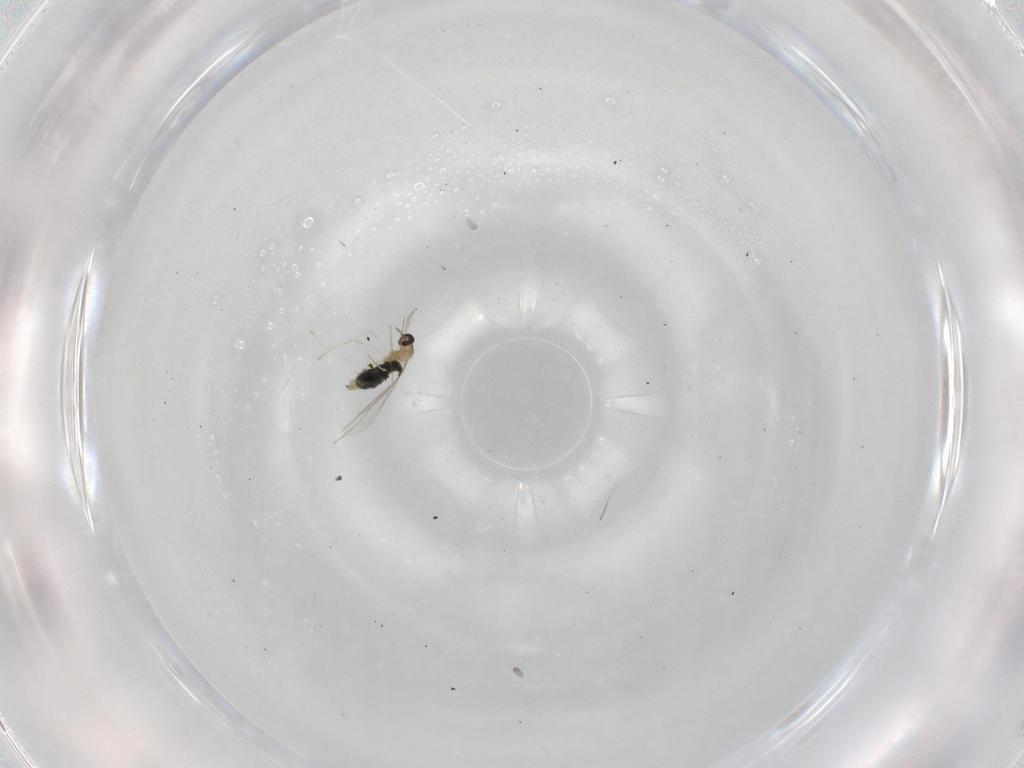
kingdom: Animalia
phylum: Arthropoda
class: Insecta
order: Diptera
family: Cecidomyiidae
